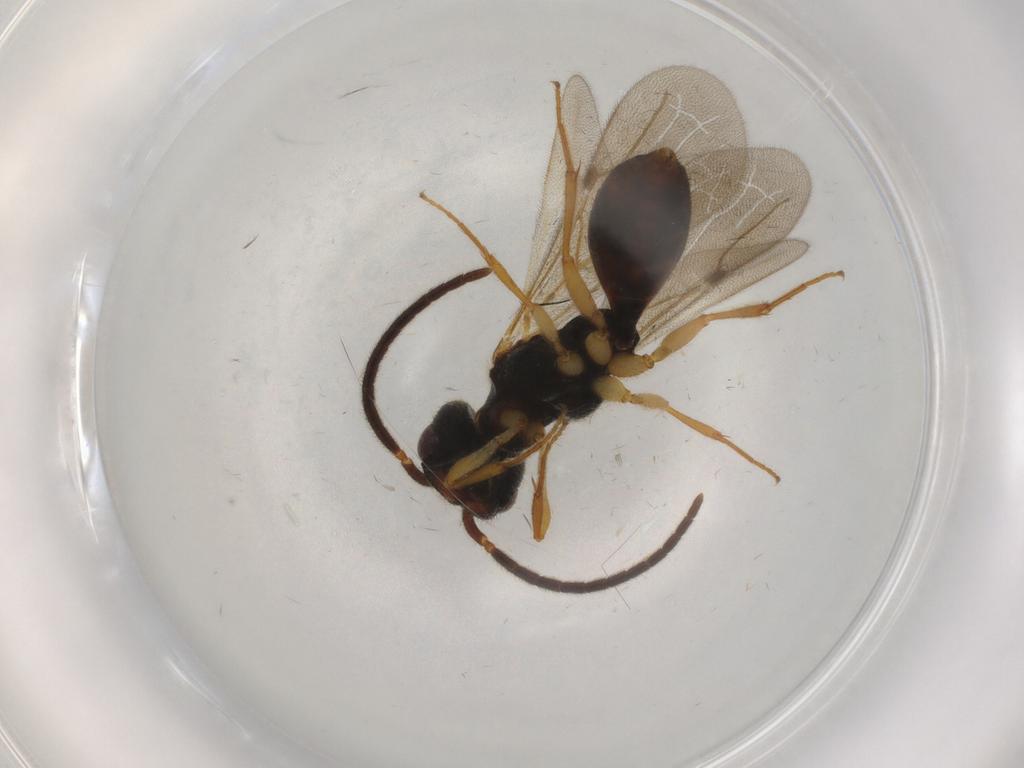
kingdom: Animalia
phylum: Arthropoda
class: Insecta
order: Hymenoptera
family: Bethylidae
